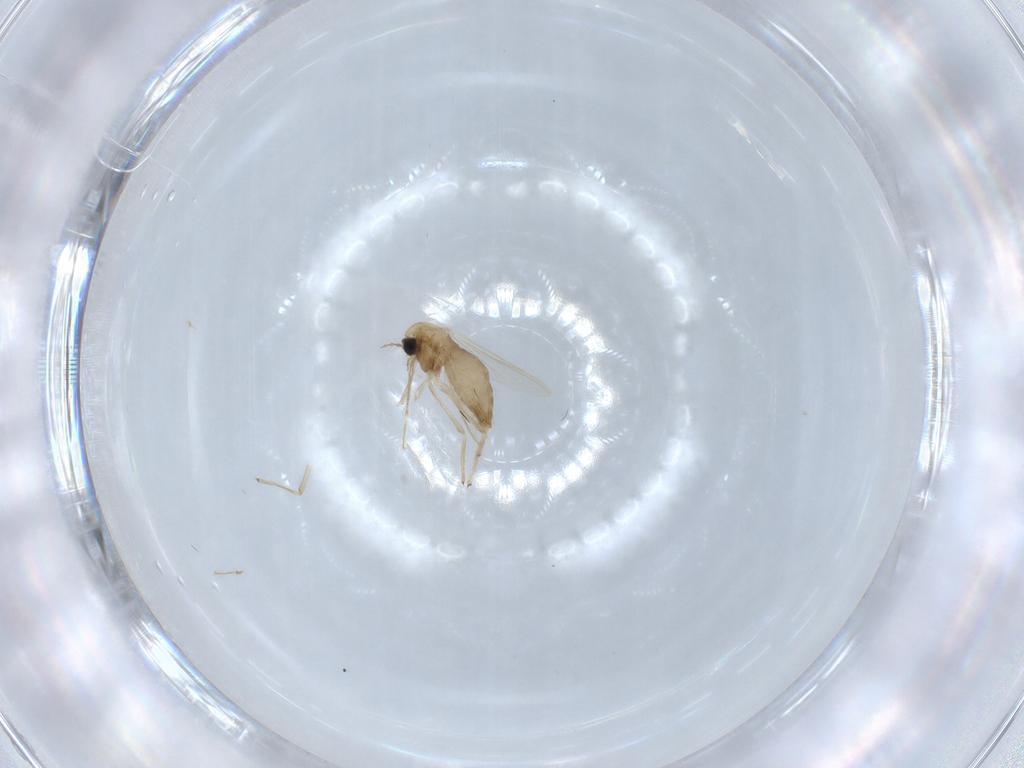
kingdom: Animalia
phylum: Arthropoda
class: Insecta
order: Diptera
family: Chironomidae
